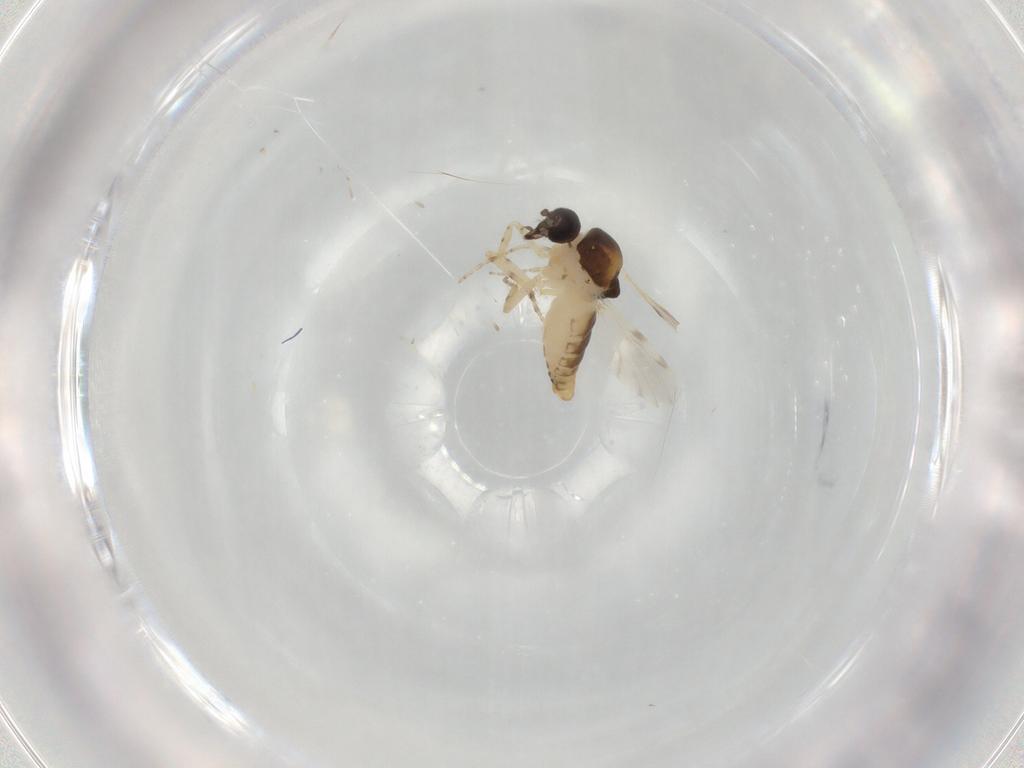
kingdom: Animalia
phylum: Arthropoda
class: Insecta
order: Diptera
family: Ceratopogonidae
